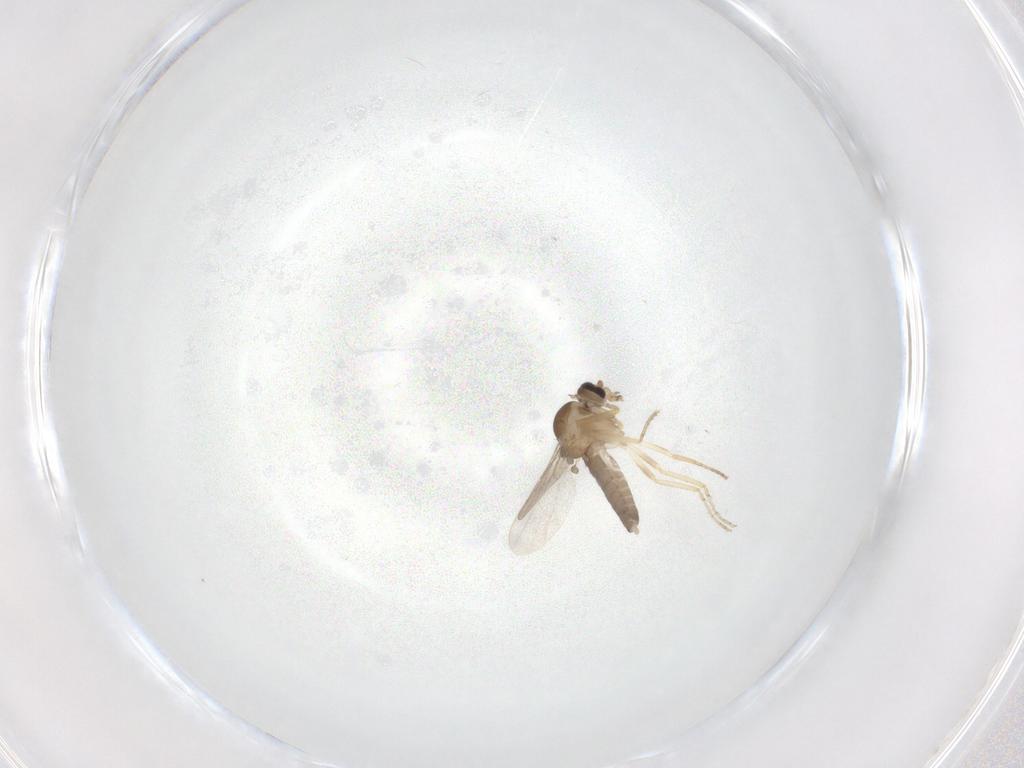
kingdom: Animalia
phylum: Arthropoda
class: Insecta
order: Diptera
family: Ceratopogonidae
